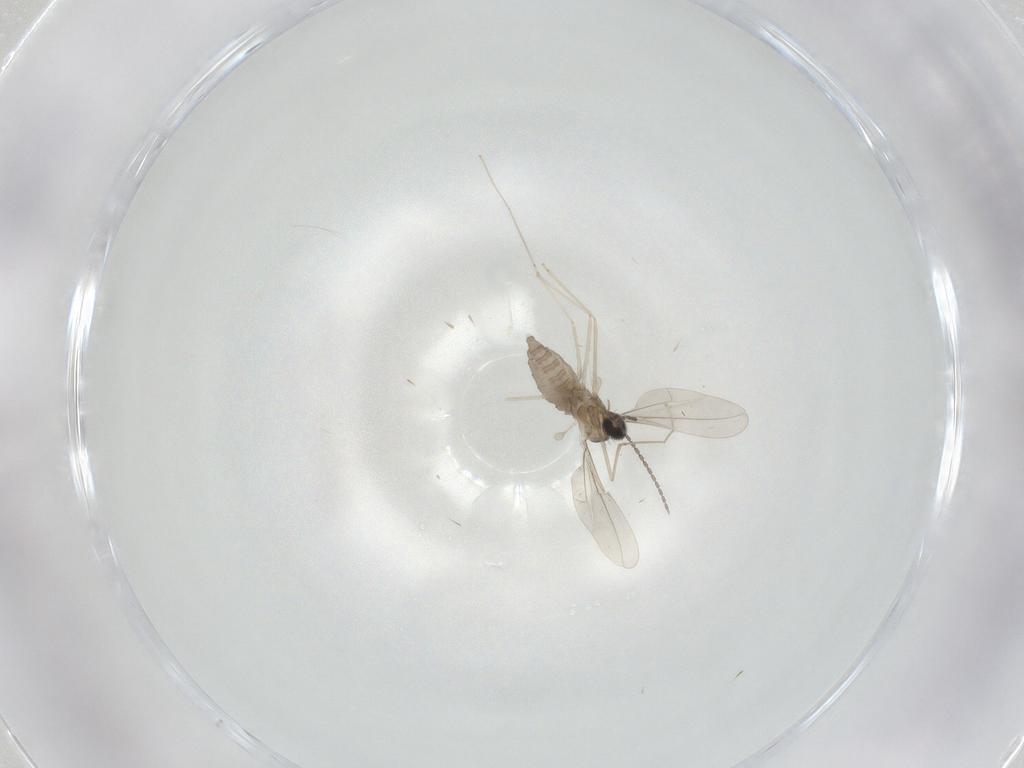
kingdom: Animalia
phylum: Arthropoda
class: Insecta
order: Diptera
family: Cecidomyiidae
